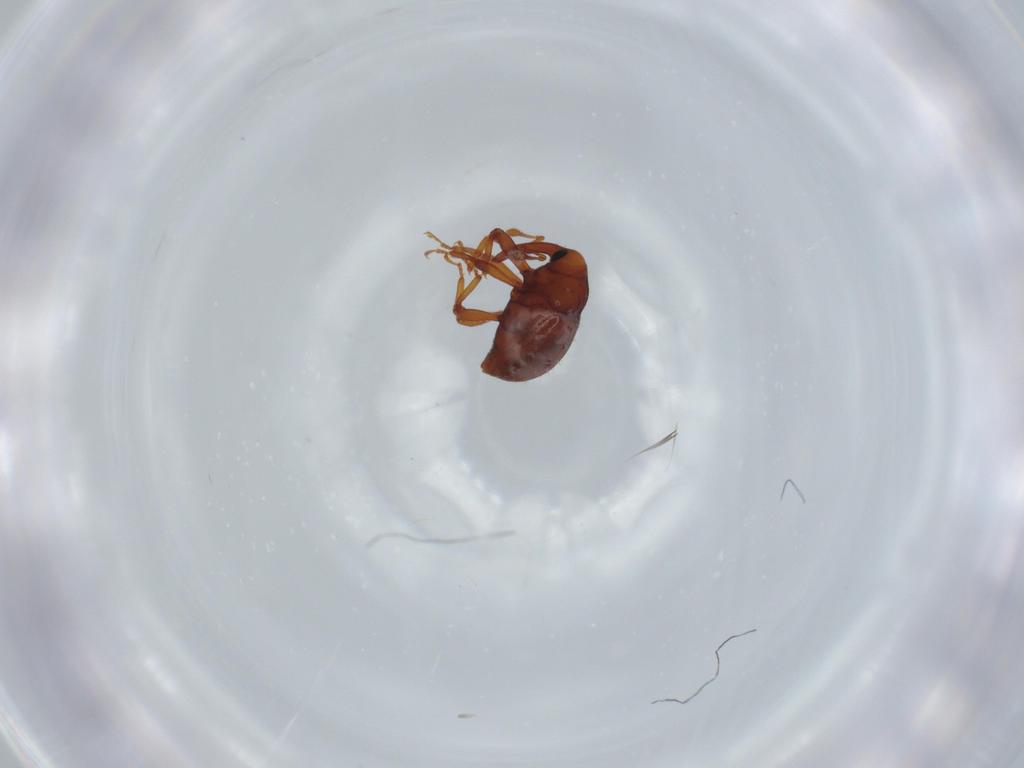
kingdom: Animalia
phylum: Arthropoda
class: Insecta
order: Coleoptera
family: Curculionidae
